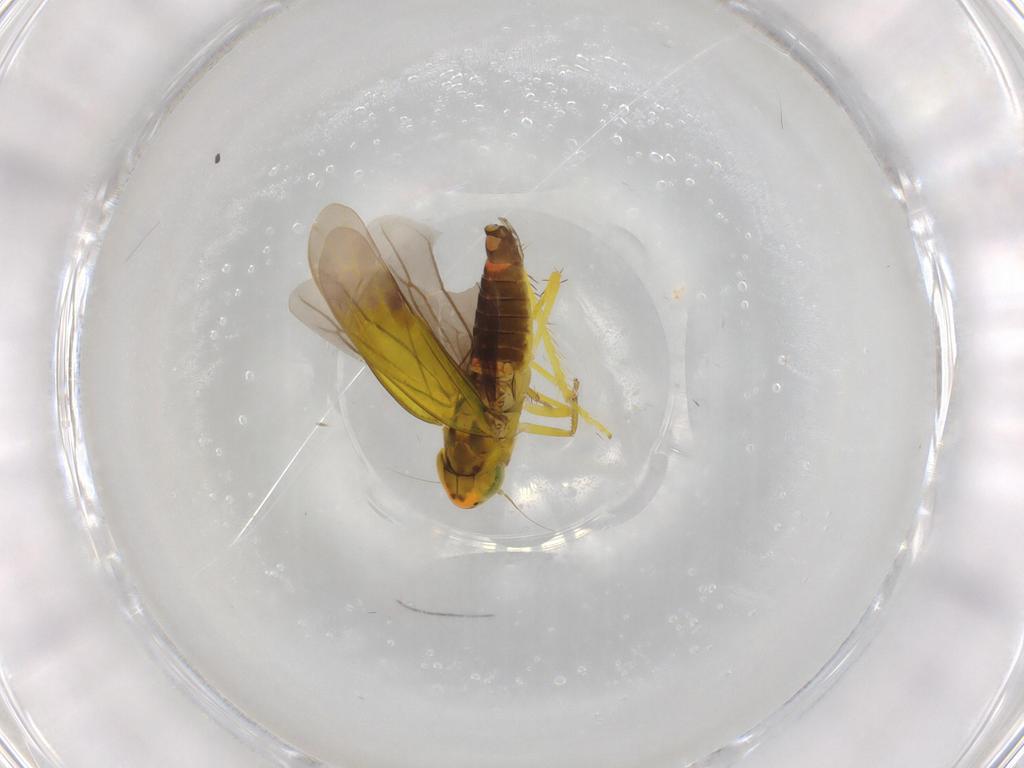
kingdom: Animalia
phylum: Arthropoda
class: Insecta
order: Hemiptera
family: Cicadellidae
